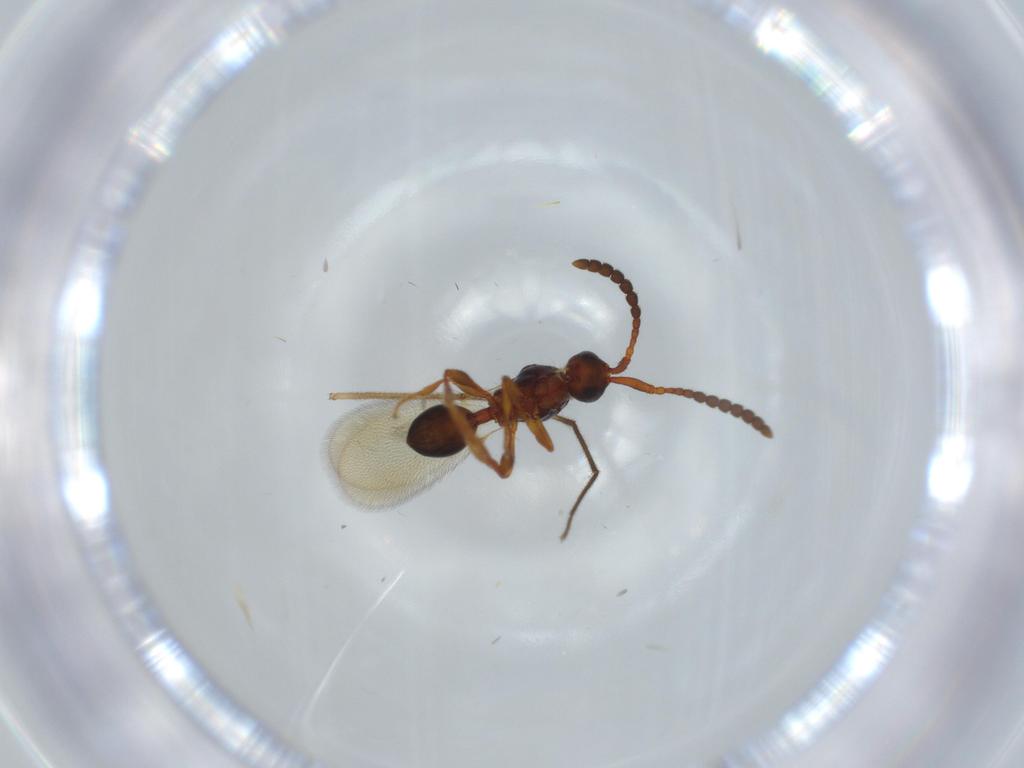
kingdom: Animalia
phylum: Arthropoda
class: Insecta
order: Hymenoptera
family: Diapriidae
